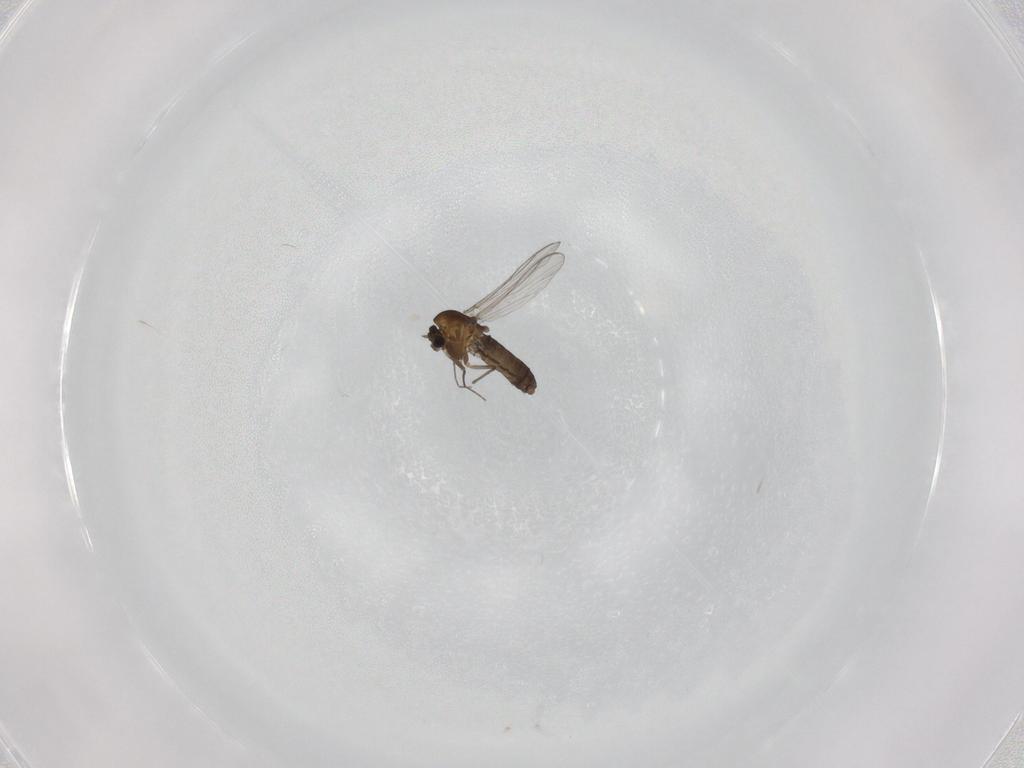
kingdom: Animalia
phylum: Arthropoda
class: Insecta
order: Diptera
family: Chironomidae
